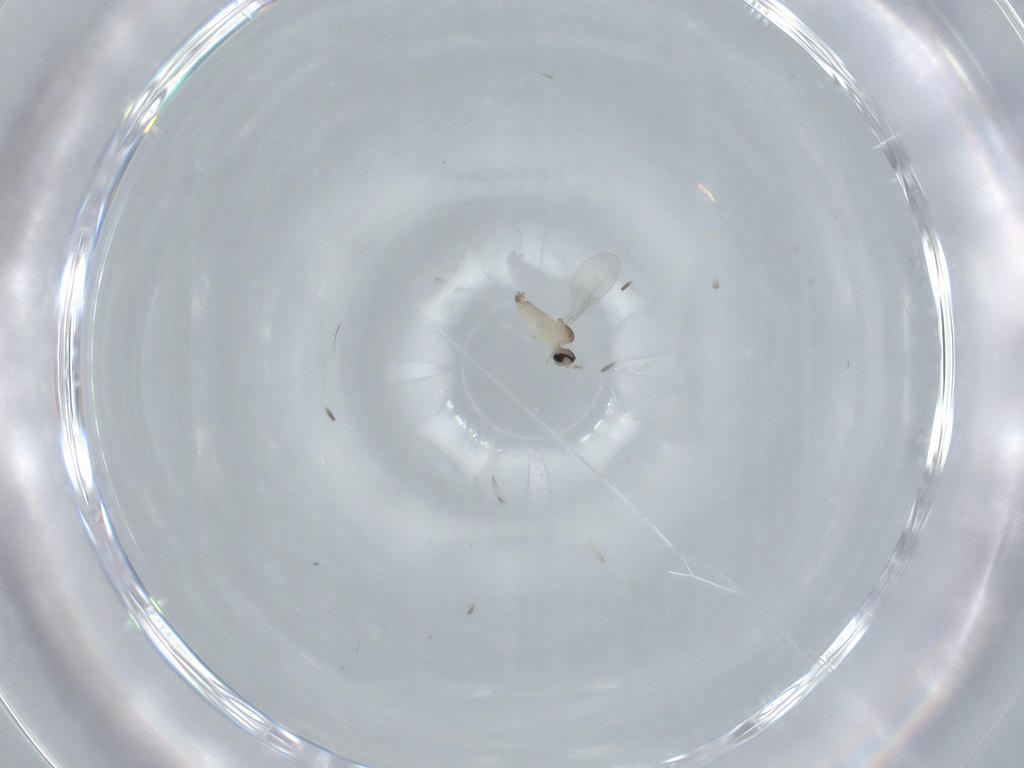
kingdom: Animalia
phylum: Arthropoda
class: Insecta
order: Diptera
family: Cecidomyiidae
